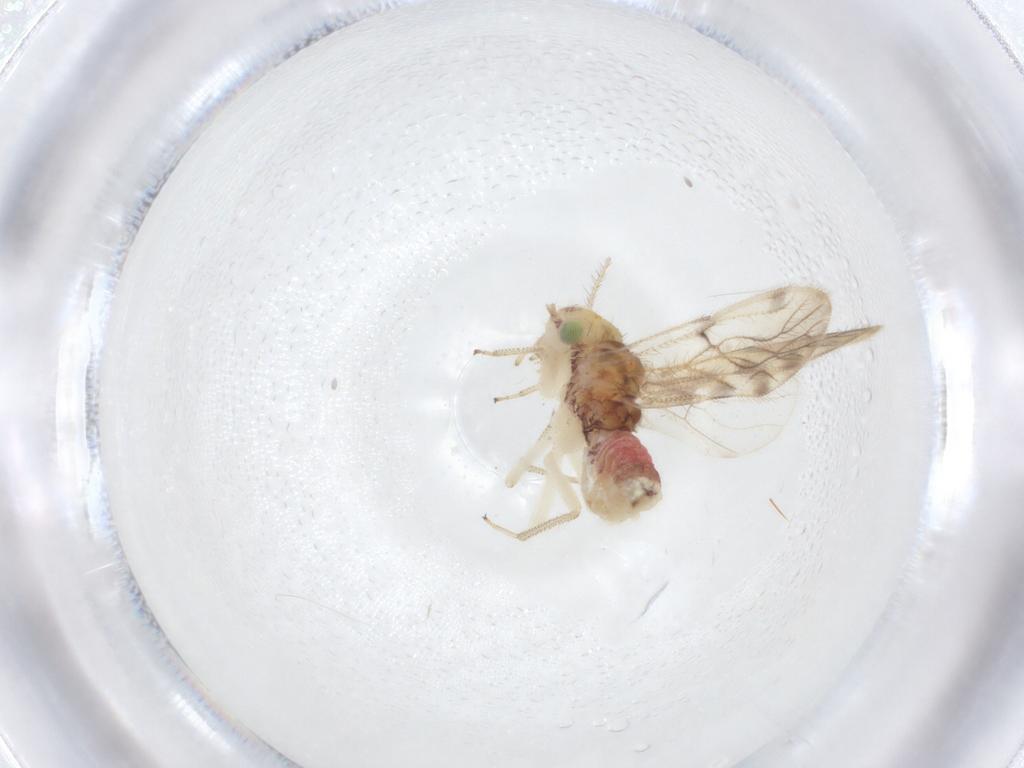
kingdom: Animalia
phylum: Arthropoda
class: Insecta
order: Psocodea
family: Pseudocaeciliidae
